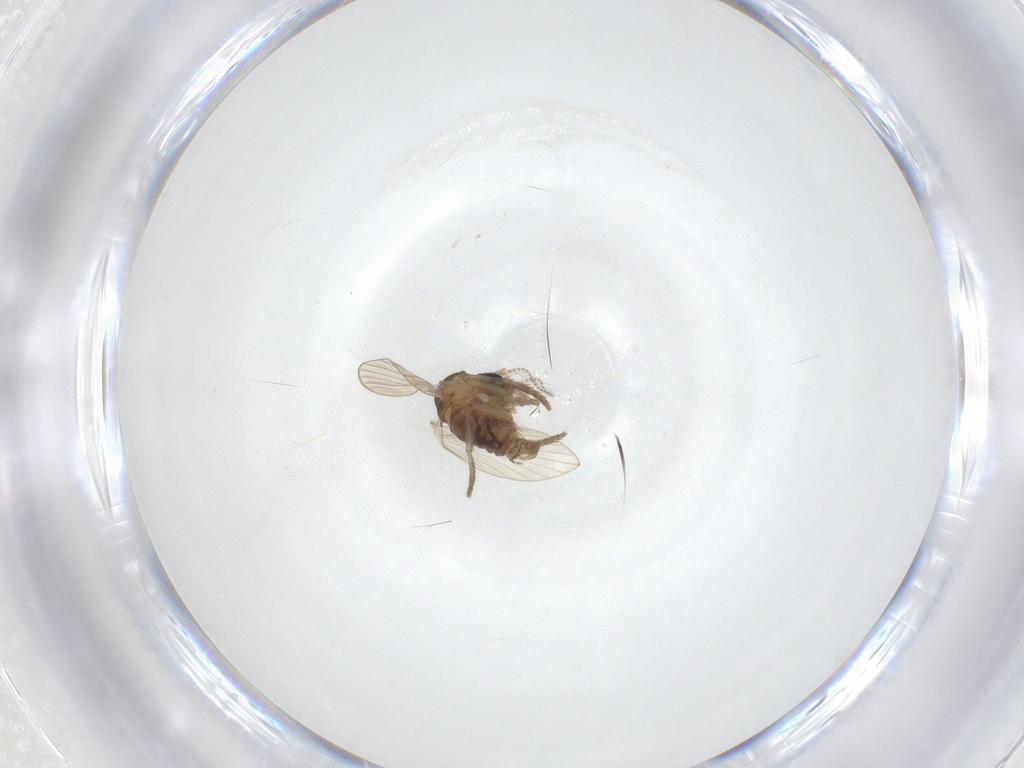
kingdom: Animalia
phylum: Arthropoda
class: Insecta
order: Diptera
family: Psychodidae
